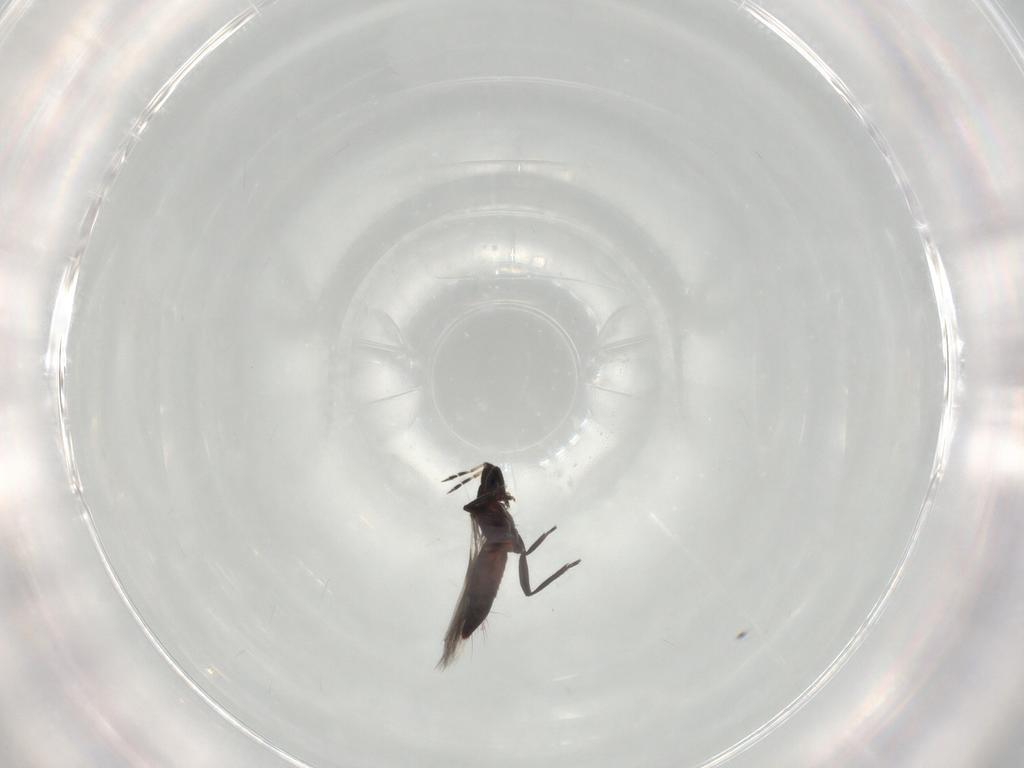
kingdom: Animalia
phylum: Arthropoda
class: Insecta
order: Thysanoptera
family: Aeolothripidae
